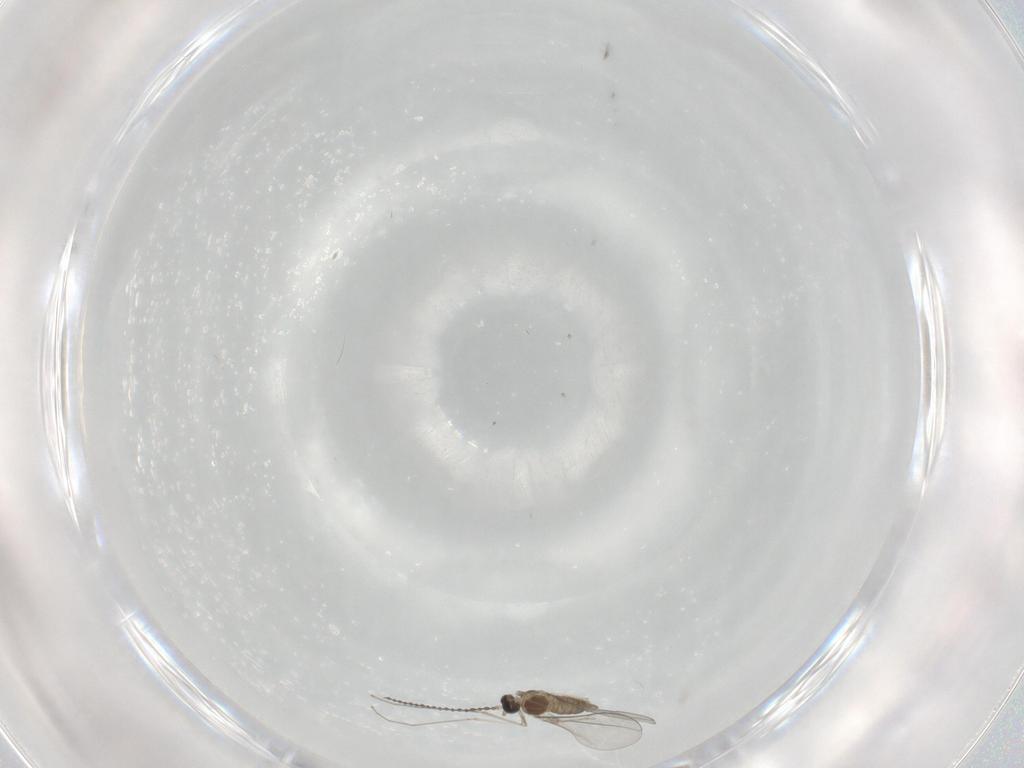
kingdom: Animalia
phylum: Arthropoda
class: Insecta
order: Diptera
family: Cecidomyiidae
